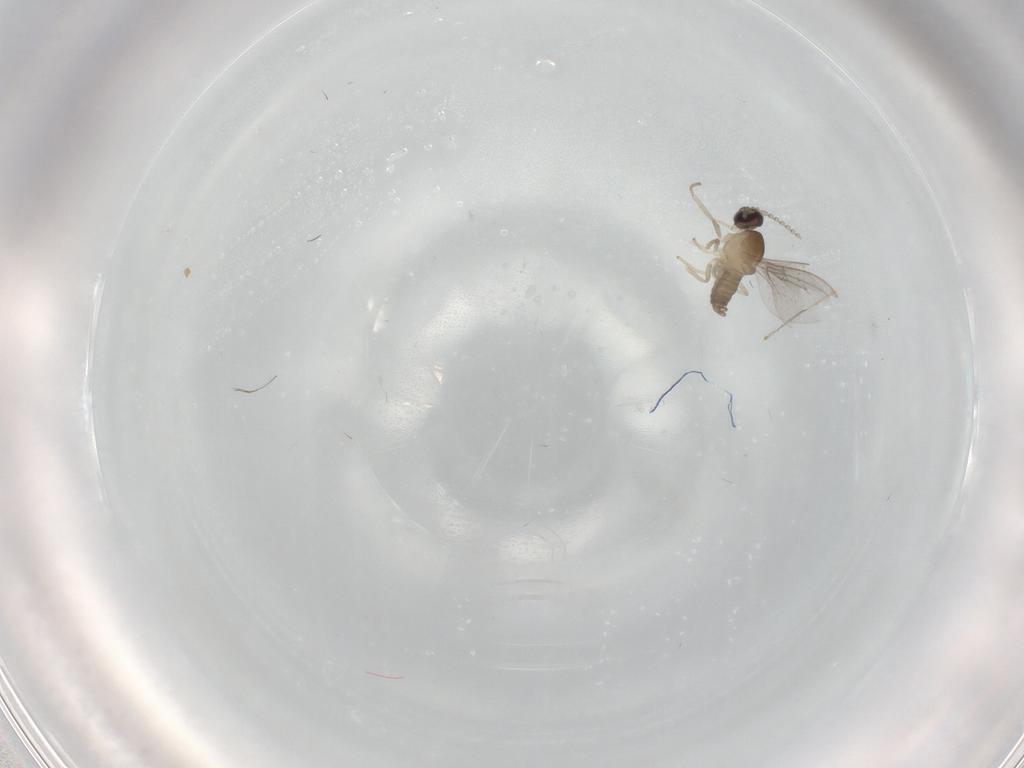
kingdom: Animalia
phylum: Arthropoda
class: Insecta
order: Diptera
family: Cecidomyiidae
